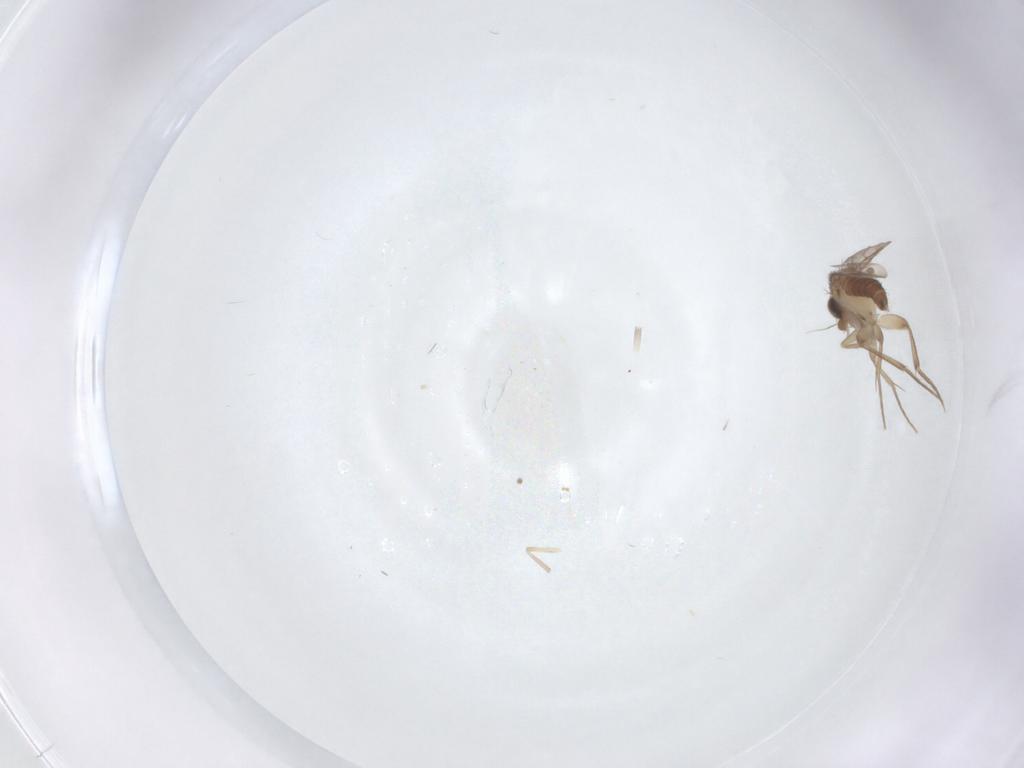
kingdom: Animalia
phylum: Arthropoda
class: Insecta
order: Diptera
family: Phoridae
